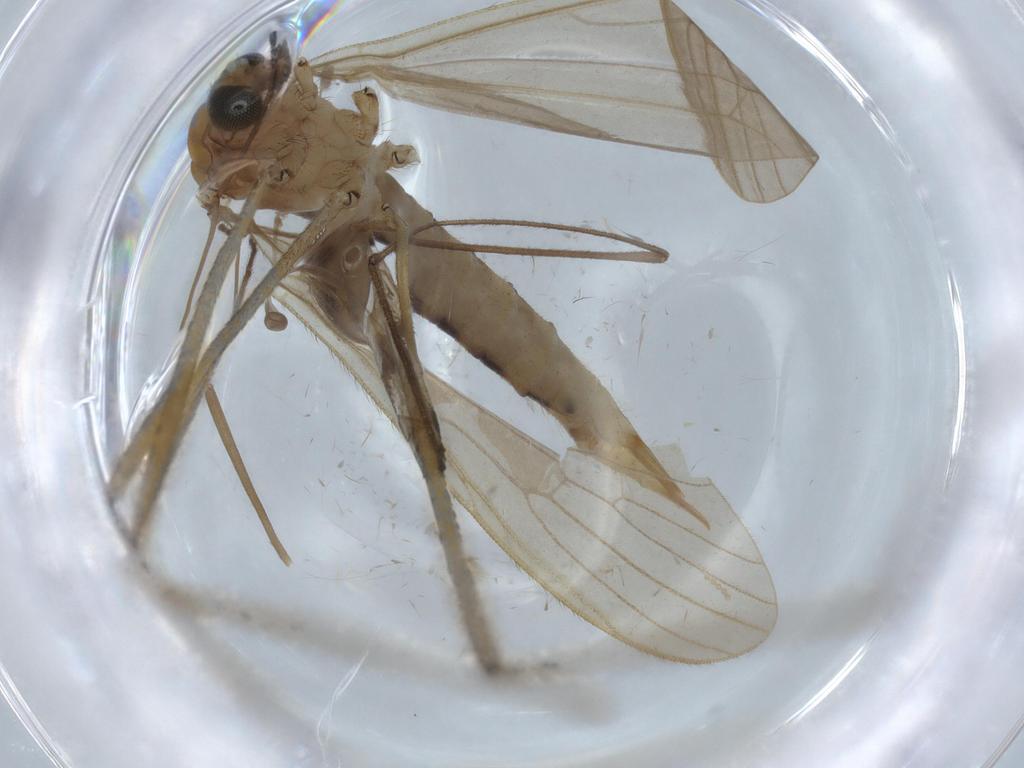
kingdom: Animalia
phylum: Arthropoda
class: Insecta
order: Diptera
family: Limoniidae
